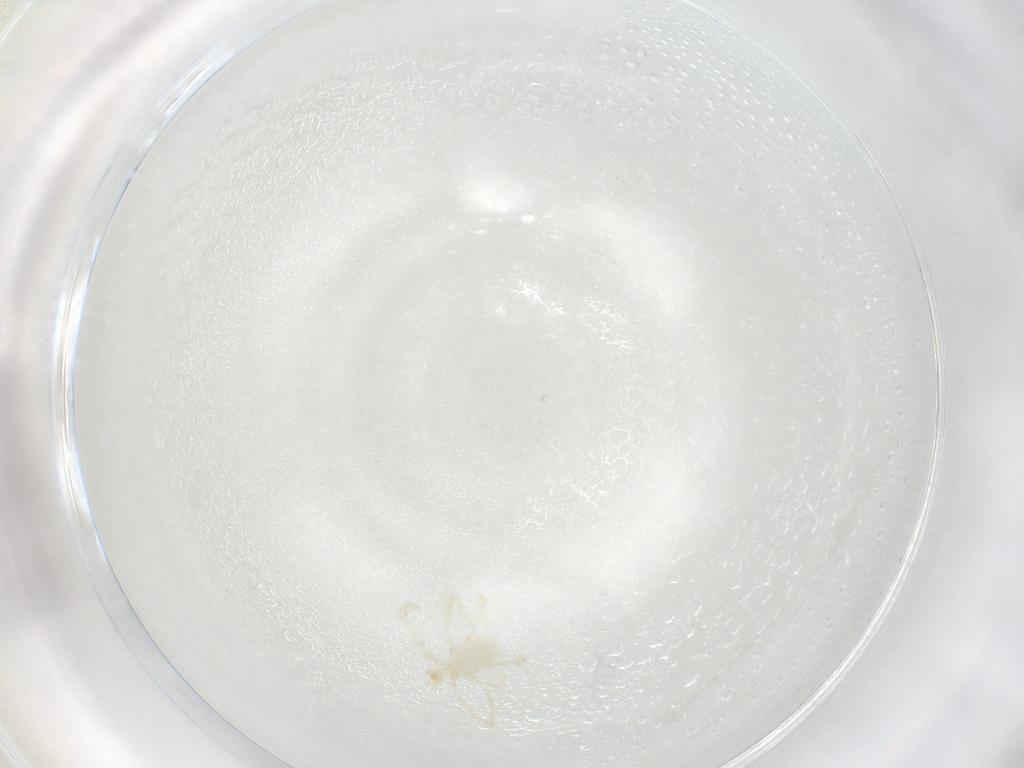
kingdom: Animalia
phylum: Arthropoda
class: Arachnida
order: Trombidiformes
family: Erythraeidae
